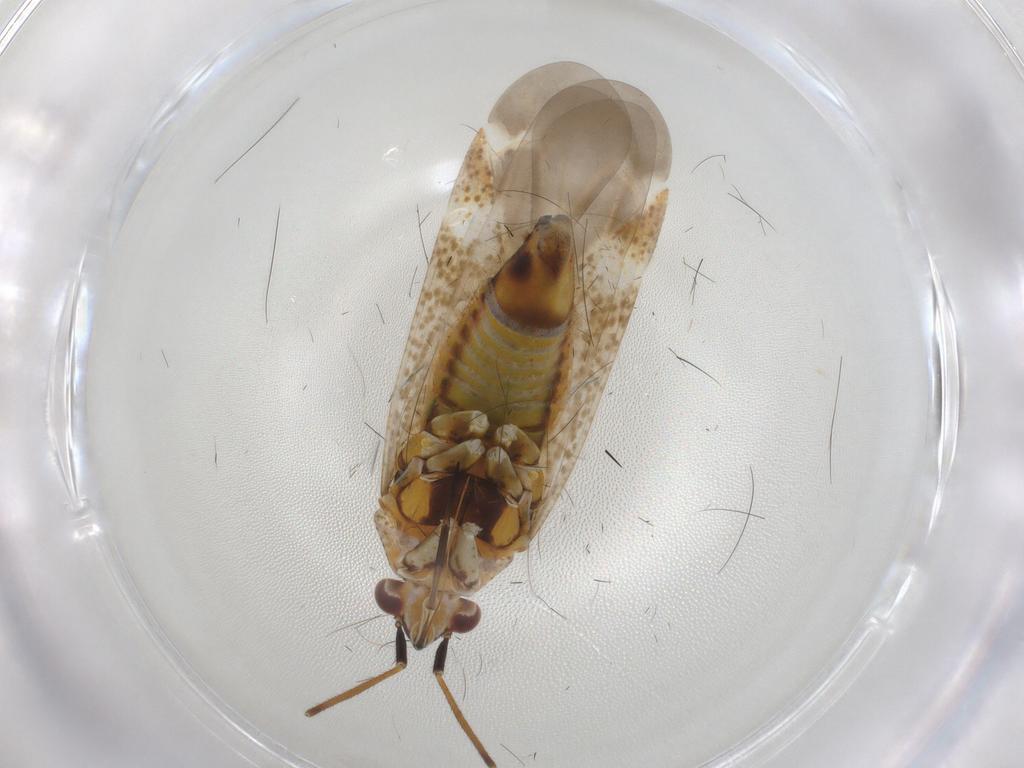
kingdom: Animalia
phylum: Arthropoda
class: Insecta
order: Hemiptera
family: Miridae
